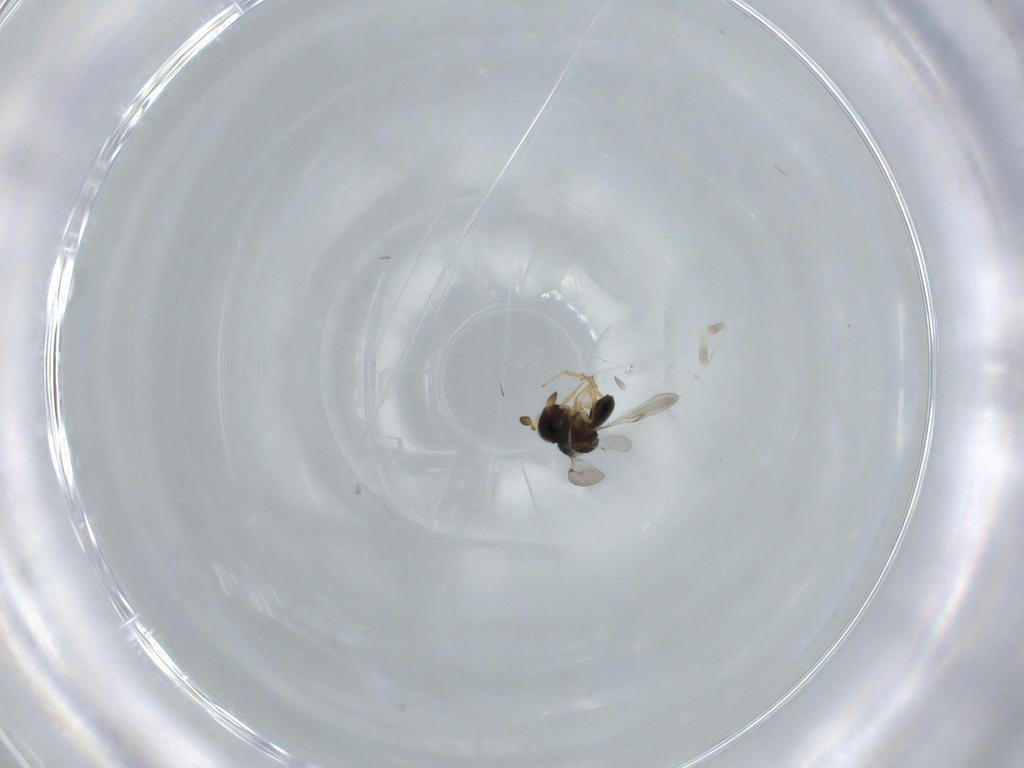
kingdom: Animalia
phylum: Arthropoda
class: Insecta
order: Hymenoptera
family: Scelionidae
